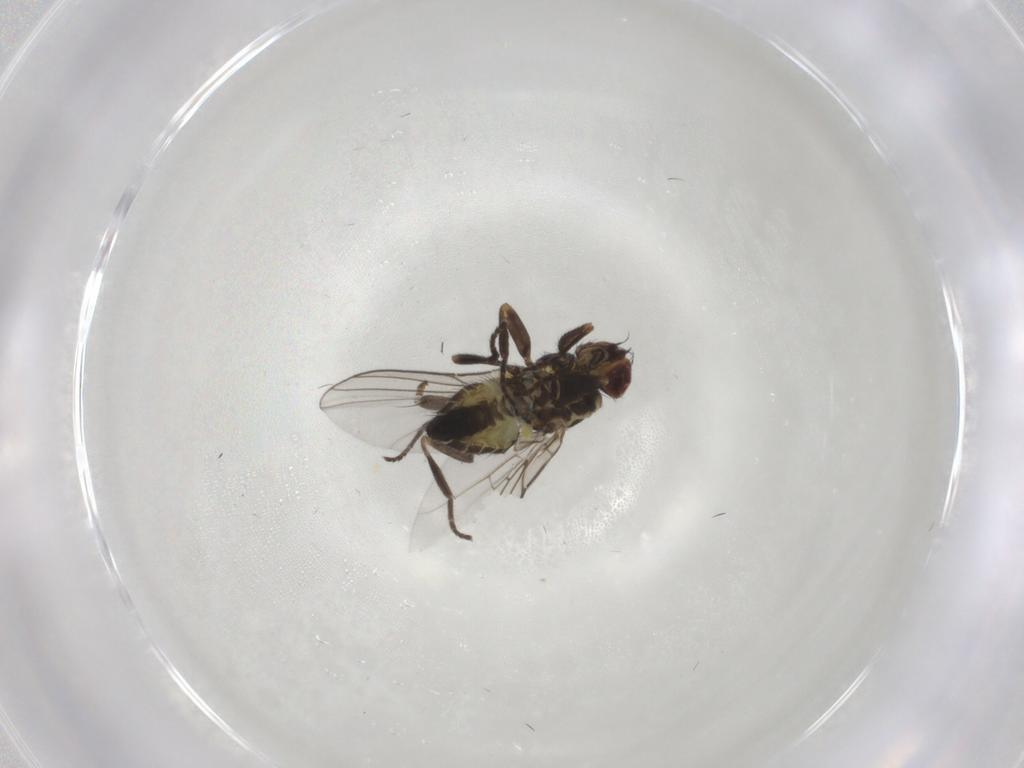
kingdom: Animalia
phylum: Arthropoda
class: Insecta
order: Diptera
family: Agromyzidae
